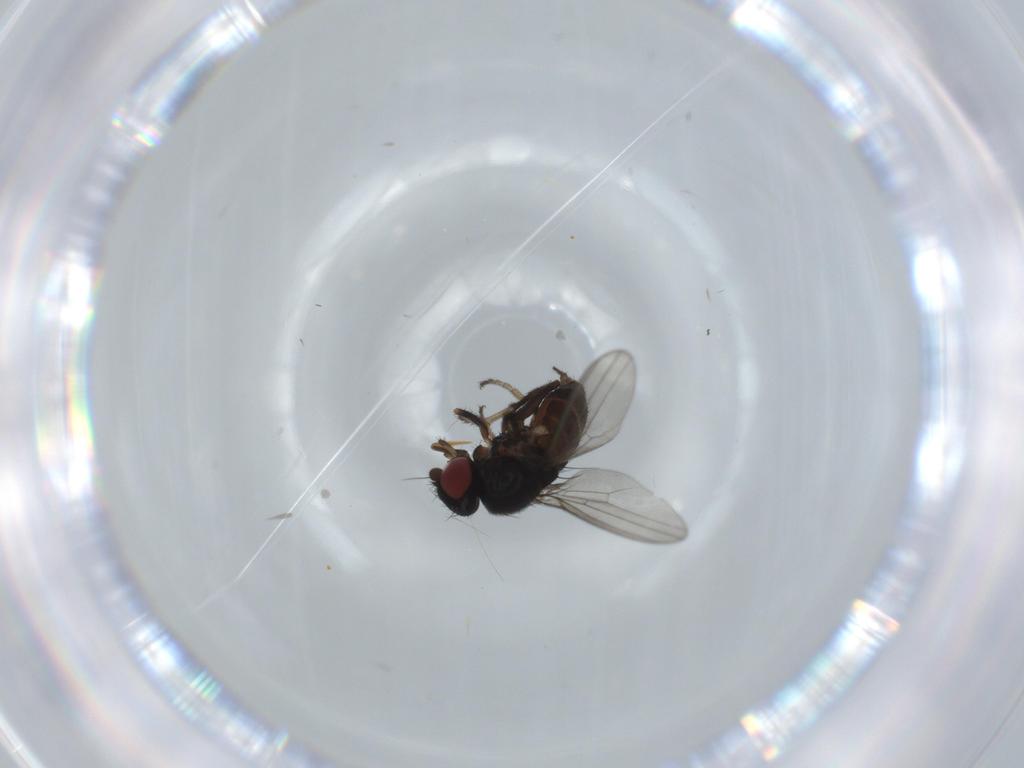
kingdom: Animalia
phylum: Arthropoda
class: Insecta
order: Diptera
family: Milichiidae
